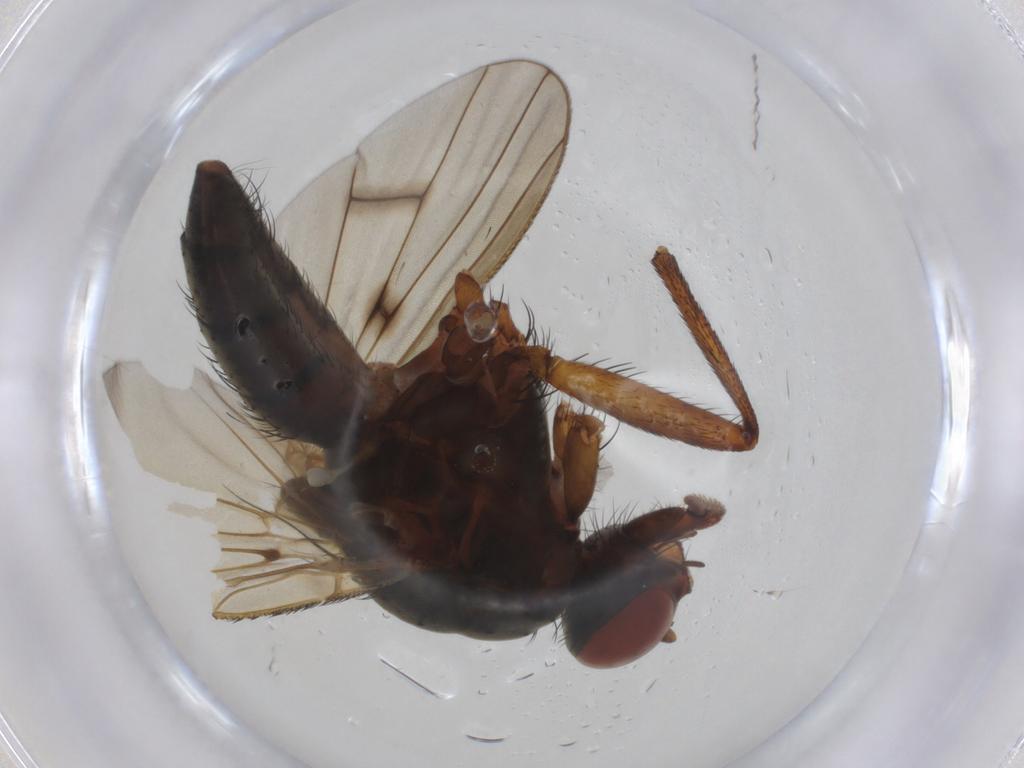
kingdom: Animalia
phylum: Arthropoda
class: Insecta
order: Diptera
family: Anthomyiidae
